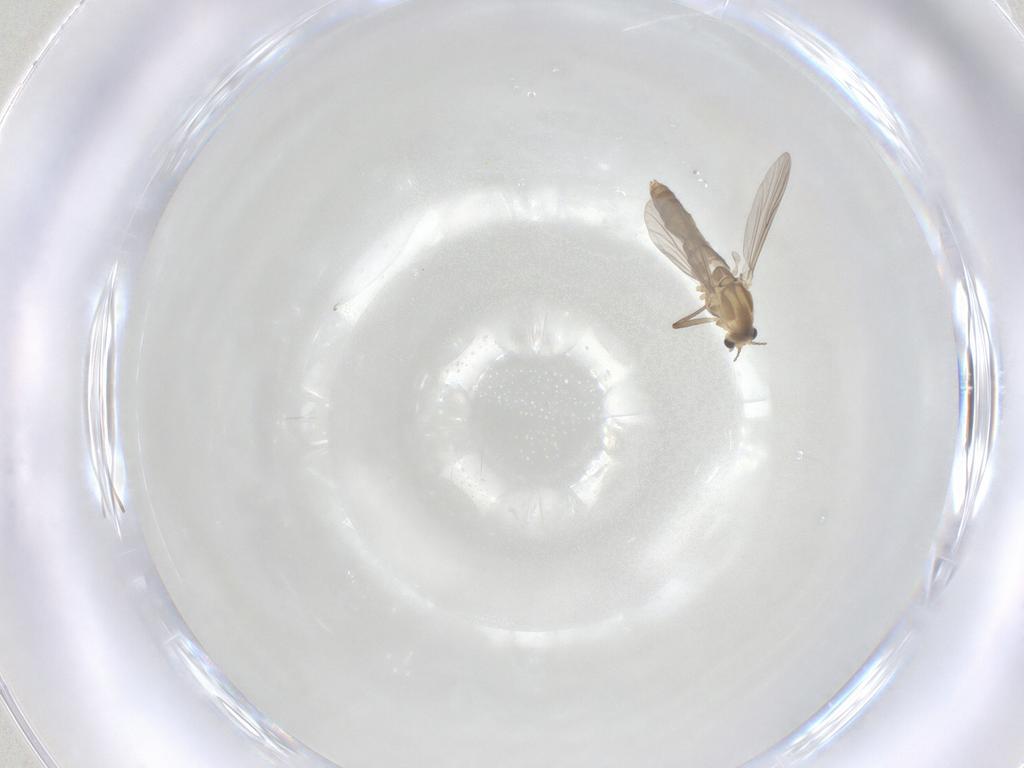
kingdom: Animalia
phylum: Arthropoda
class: Insecta
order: Diptera
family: Chironomidae
